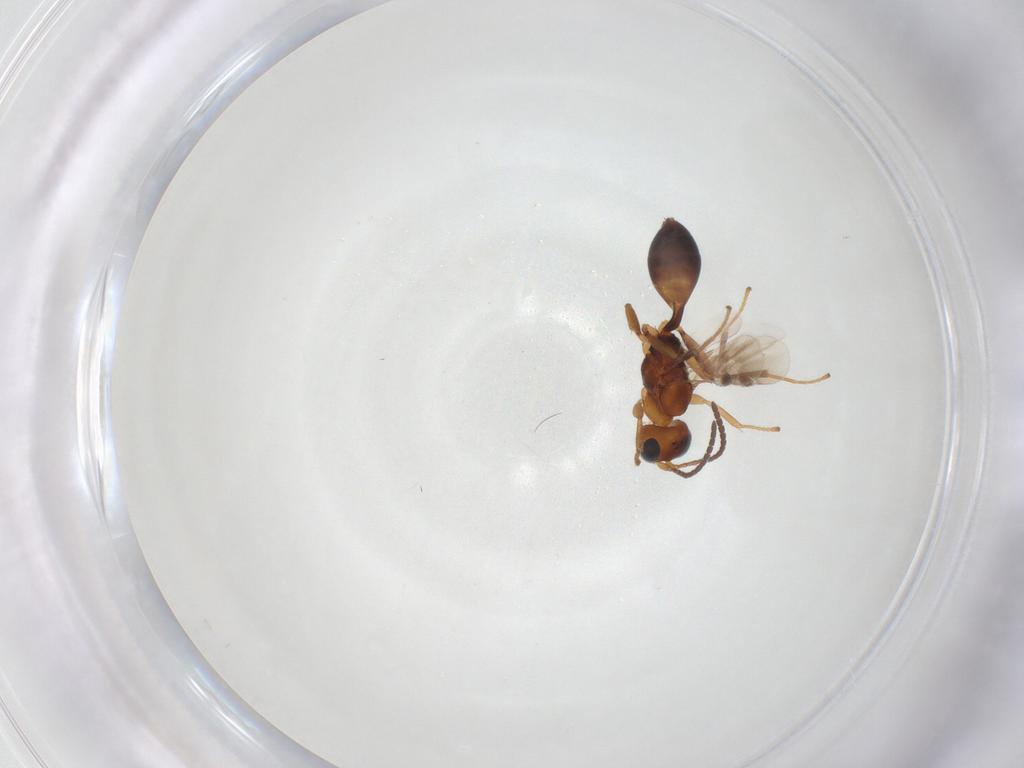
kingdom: Animalia
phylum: Arthropoda
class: Insecta
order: Hymenoptera
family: Braconidae
